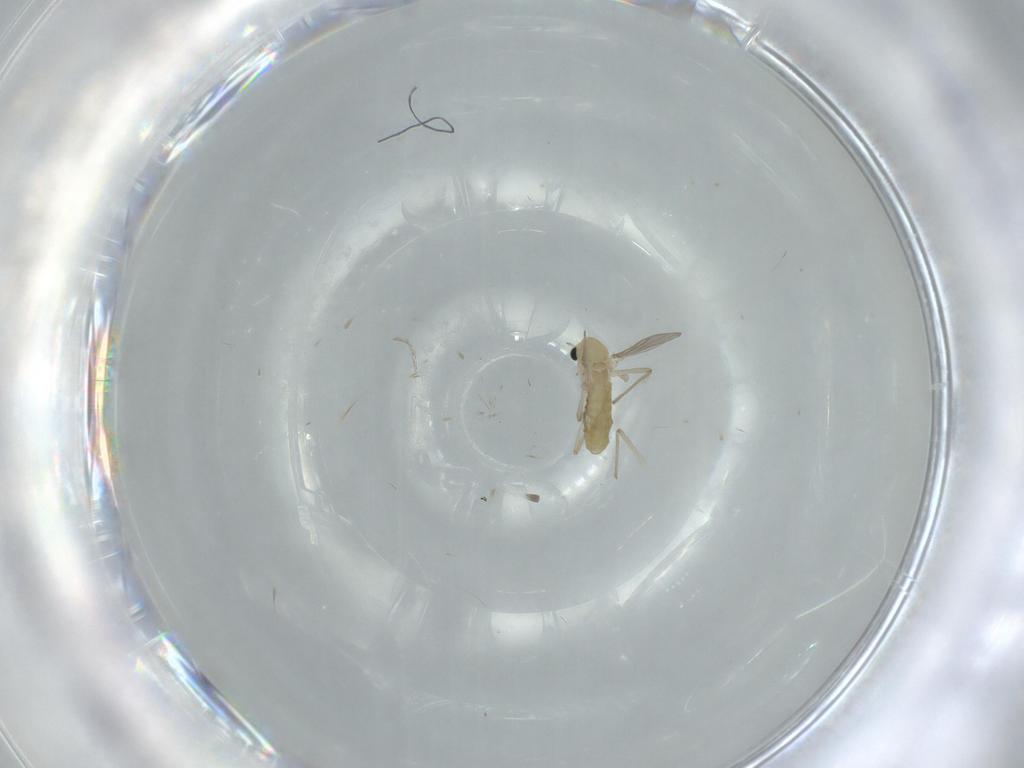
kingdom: Animalia
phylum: Arthropoda
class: Insecta
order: Diptera
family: Chironomidae
